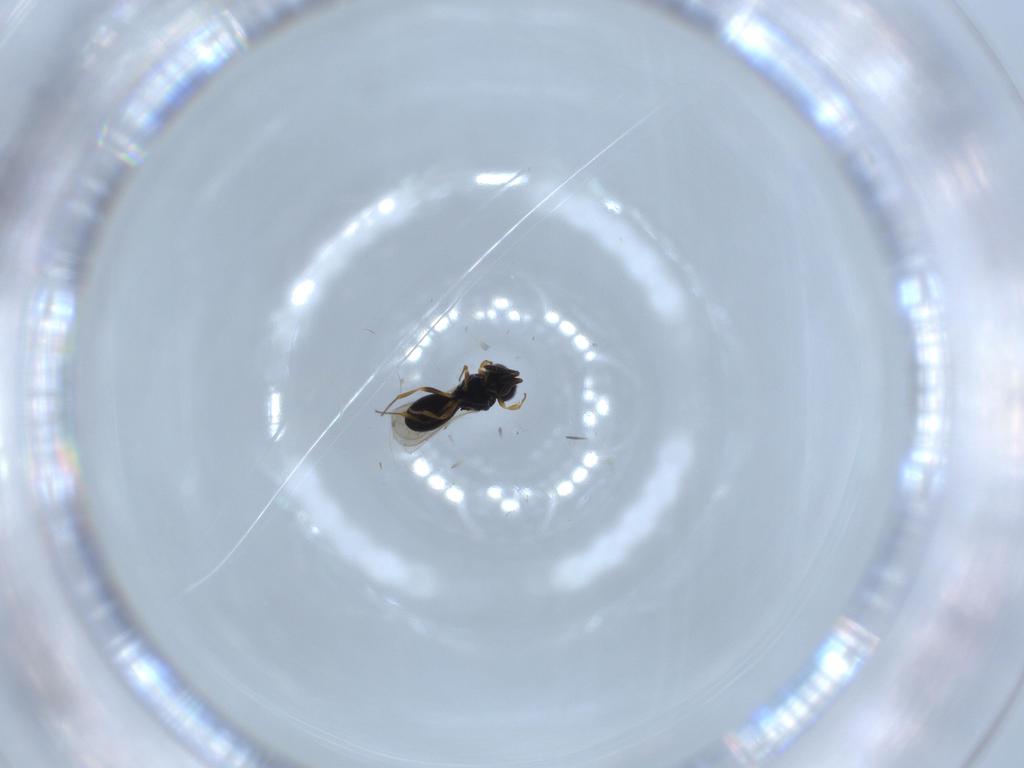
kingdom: Animalia
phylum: Arthropoda
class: Insecta
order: Hymenoptera
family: Scelionidae
